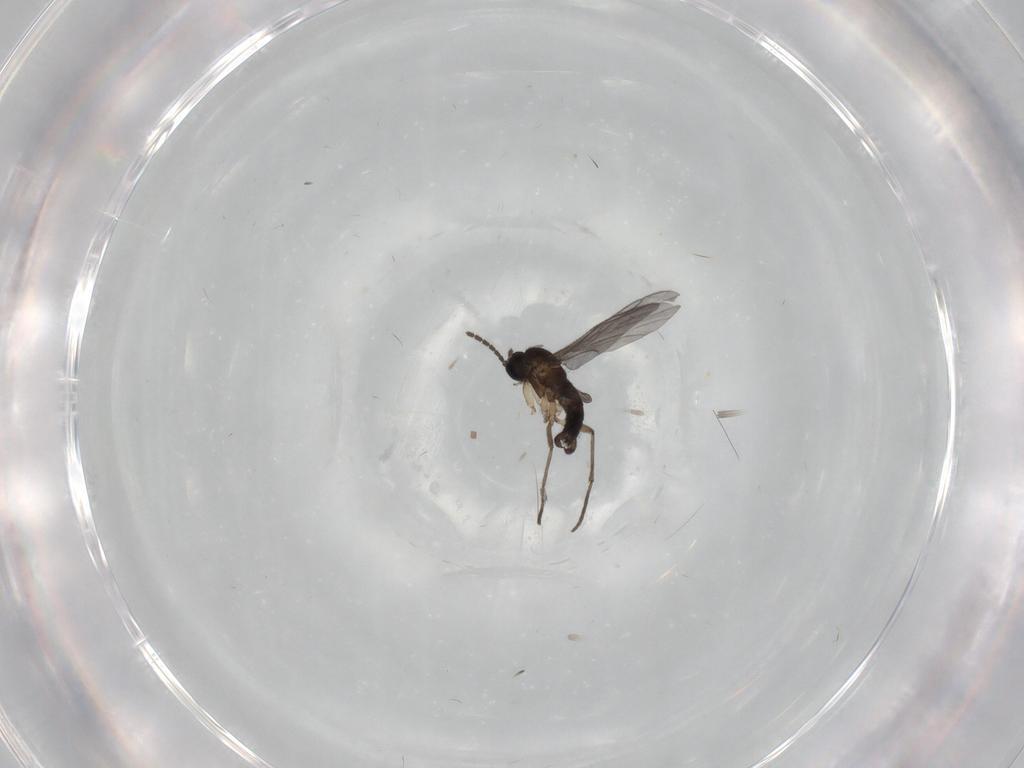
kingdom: Animalia
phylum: Arthropoda
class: Insecta
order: Diptera
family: Sciaridae
